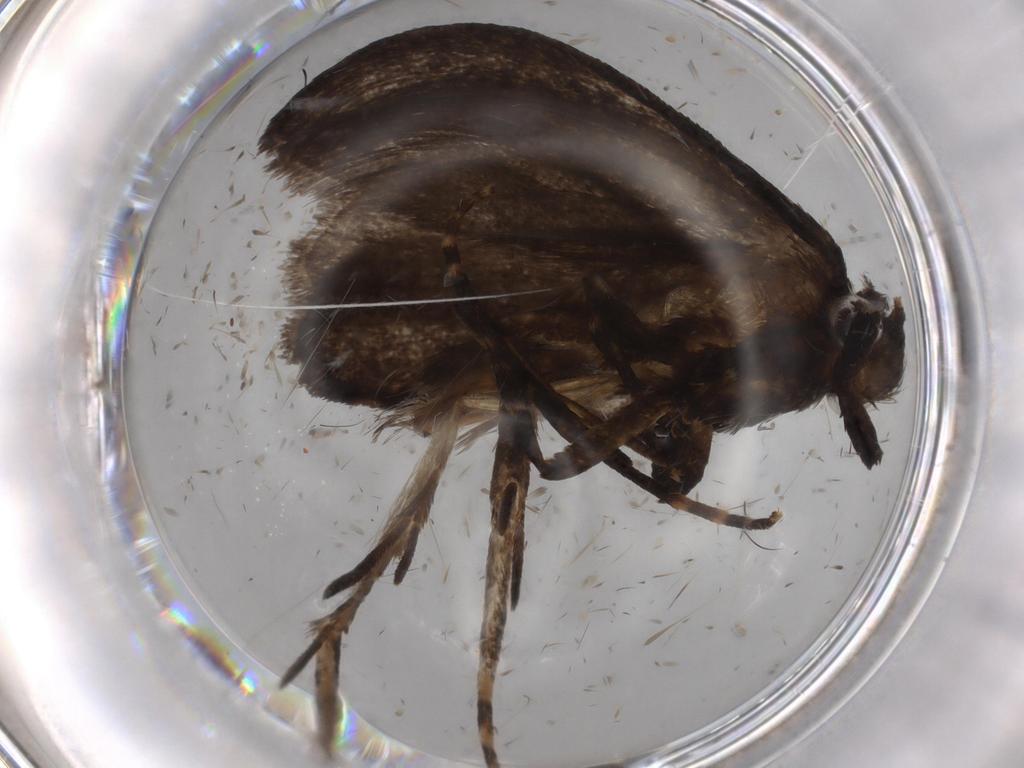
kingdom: Animalia
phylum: Arthropoda
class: Insecta
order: Lepidoptera
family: Tineidae
